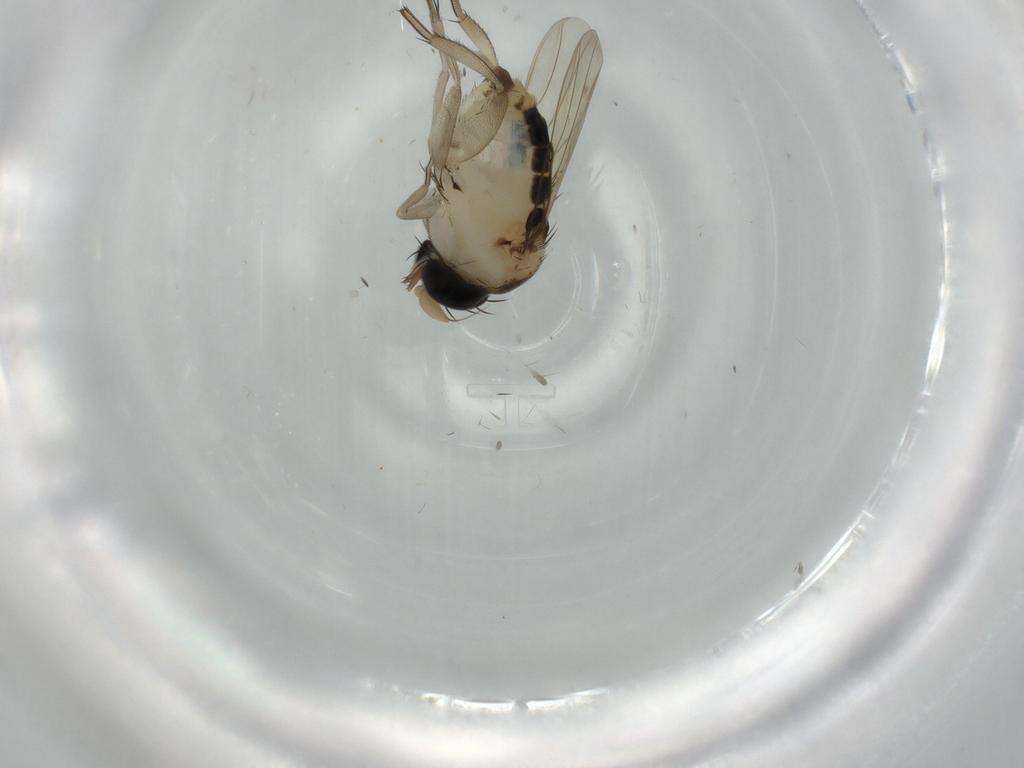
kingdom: Animalia
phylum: Arthropoda
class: Insecta
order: Diptera
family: Phoridae
